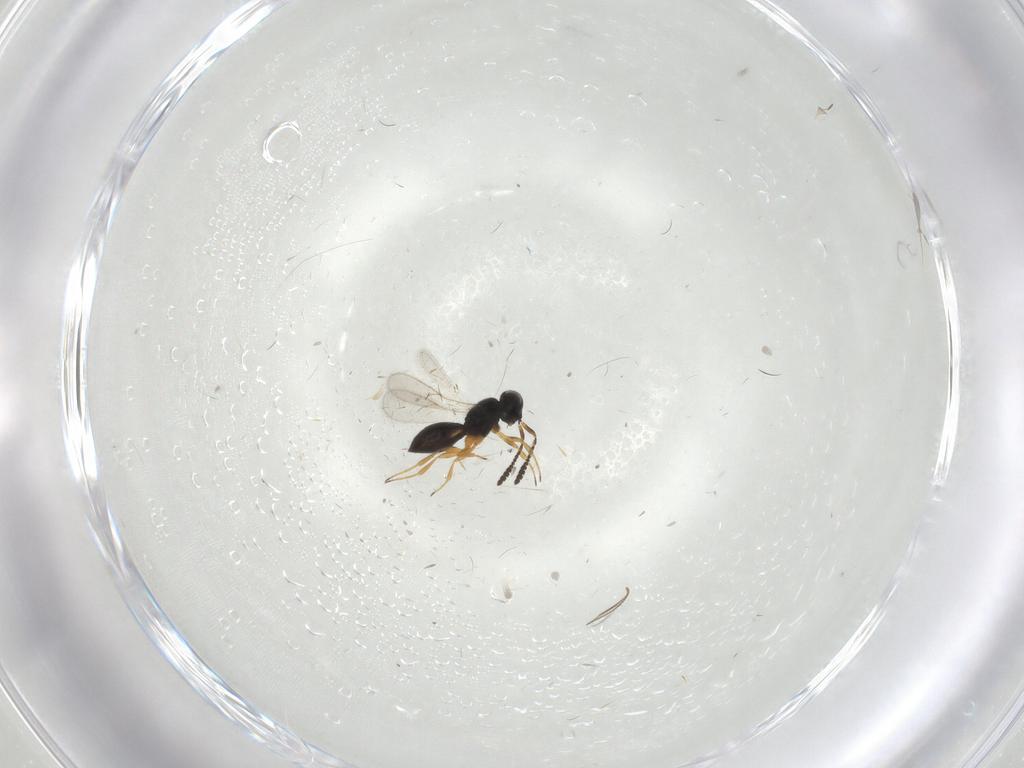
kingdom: Animalia
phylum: Arthropoda
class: Insecta
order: Hymenoptera
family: Scelionidae
